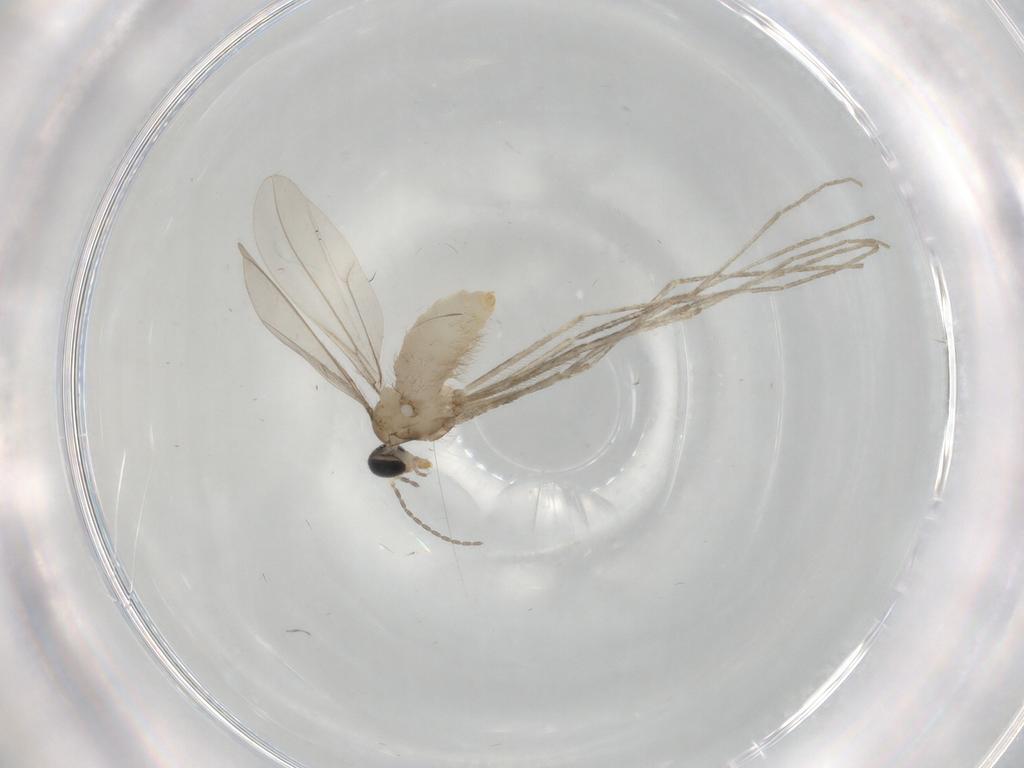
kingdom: Animalia
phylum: Arthropoda
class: Insecta
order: Diptera
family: Cecidomyiidae
